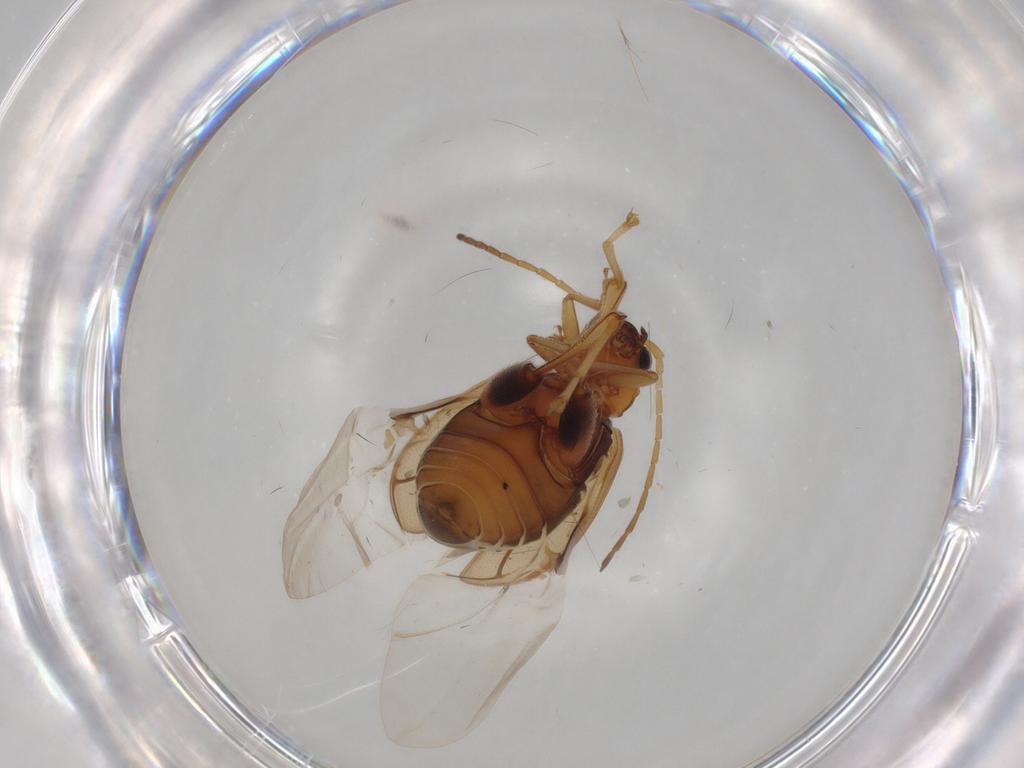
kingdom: Animalia
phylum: Arthropoda
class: Insecta
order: Coleoptera
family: Chrysomelidae
